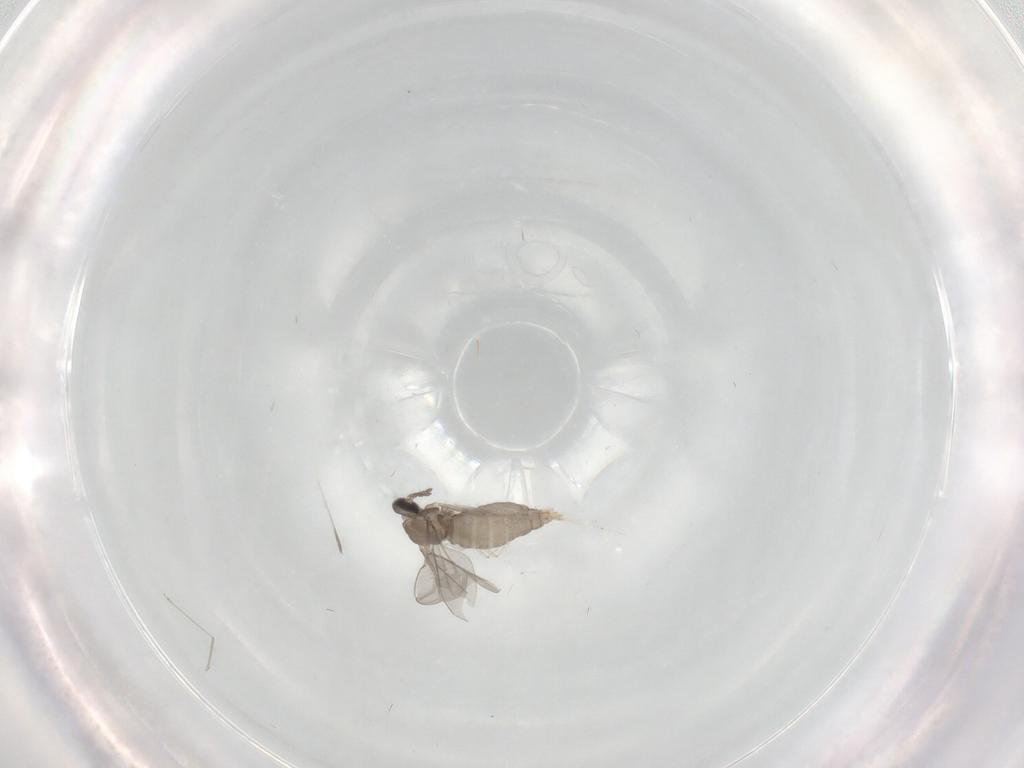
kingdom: Animalia
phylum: Arthropoda
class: Insecta
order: Diptera
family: Cecidomyiidae
